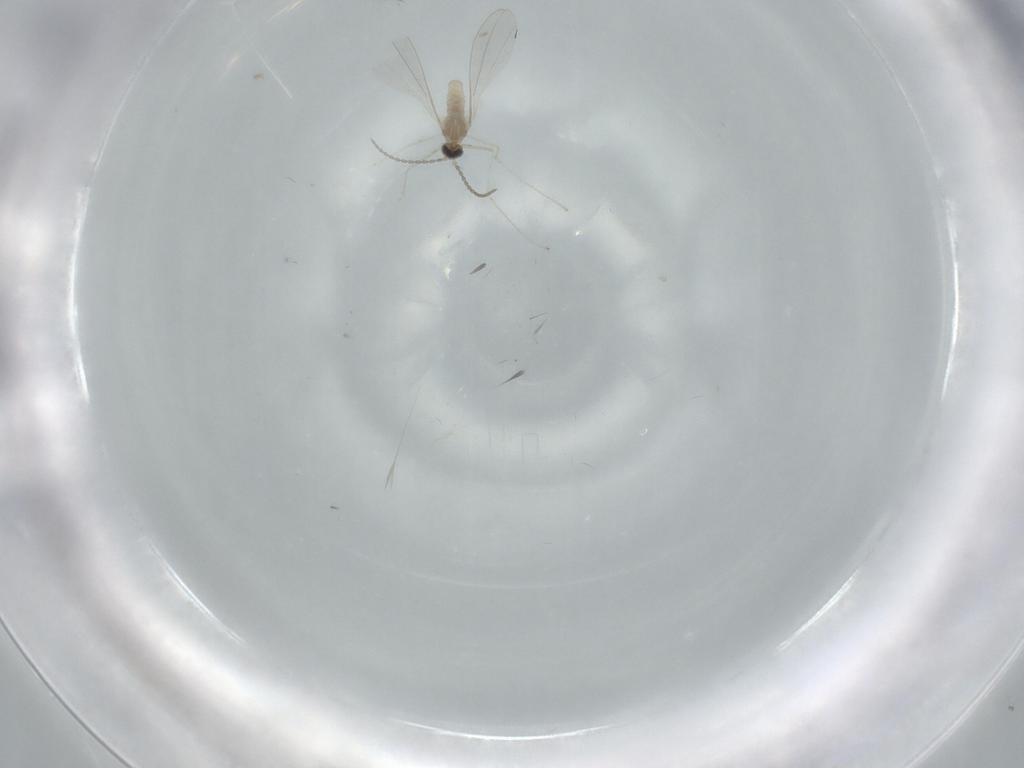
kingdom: Animalia
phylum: Arthropoda
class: Insecta
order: Diptera
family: Cecidomyiidae
